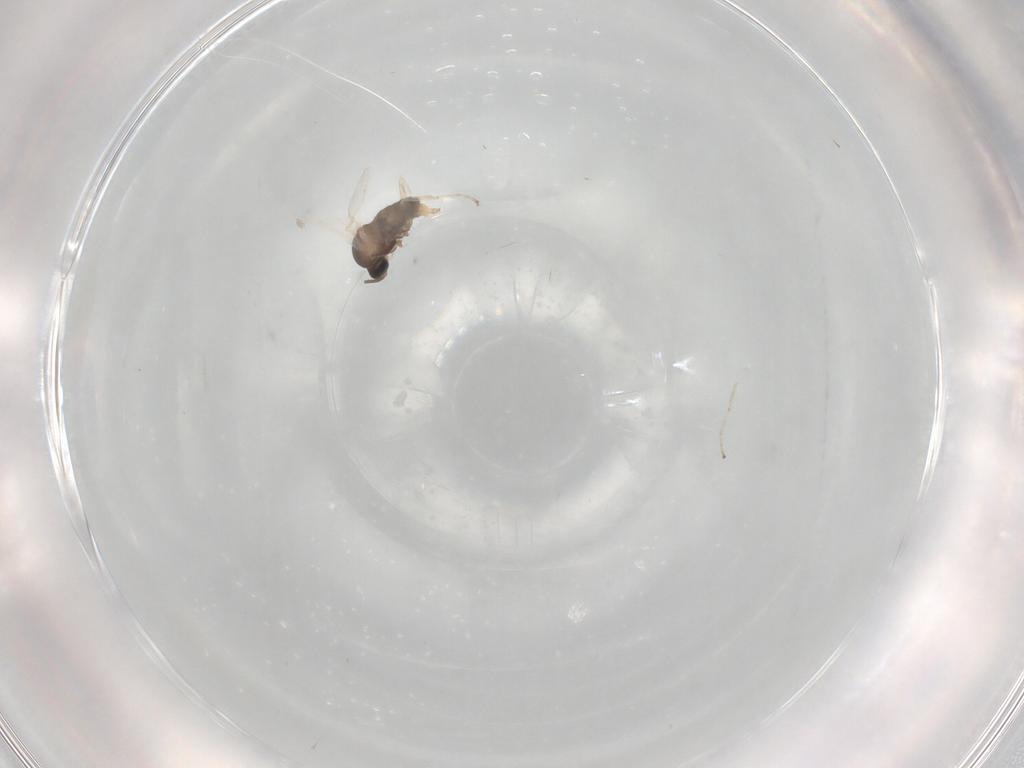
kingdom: Animalia
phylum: Arthropoda
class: Insecta
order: Diptera
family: Cecidomyiidae
